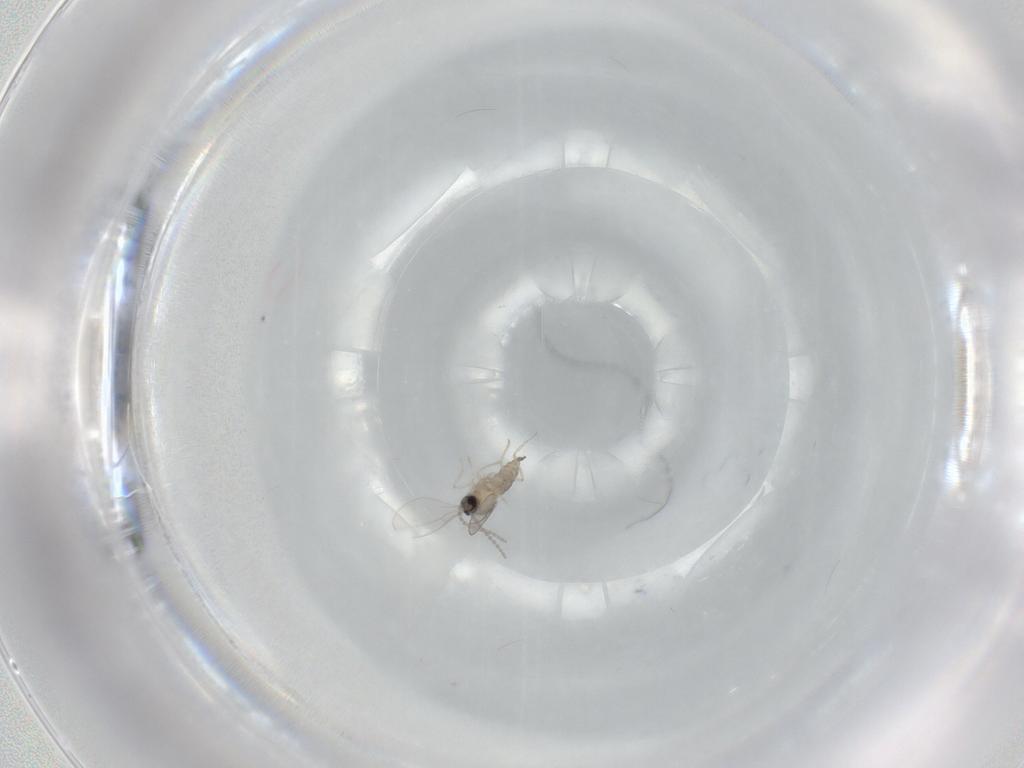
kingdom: Animalia
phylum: Arthropoda
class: Insecta
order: Diptera
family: Cecidomyiidae
